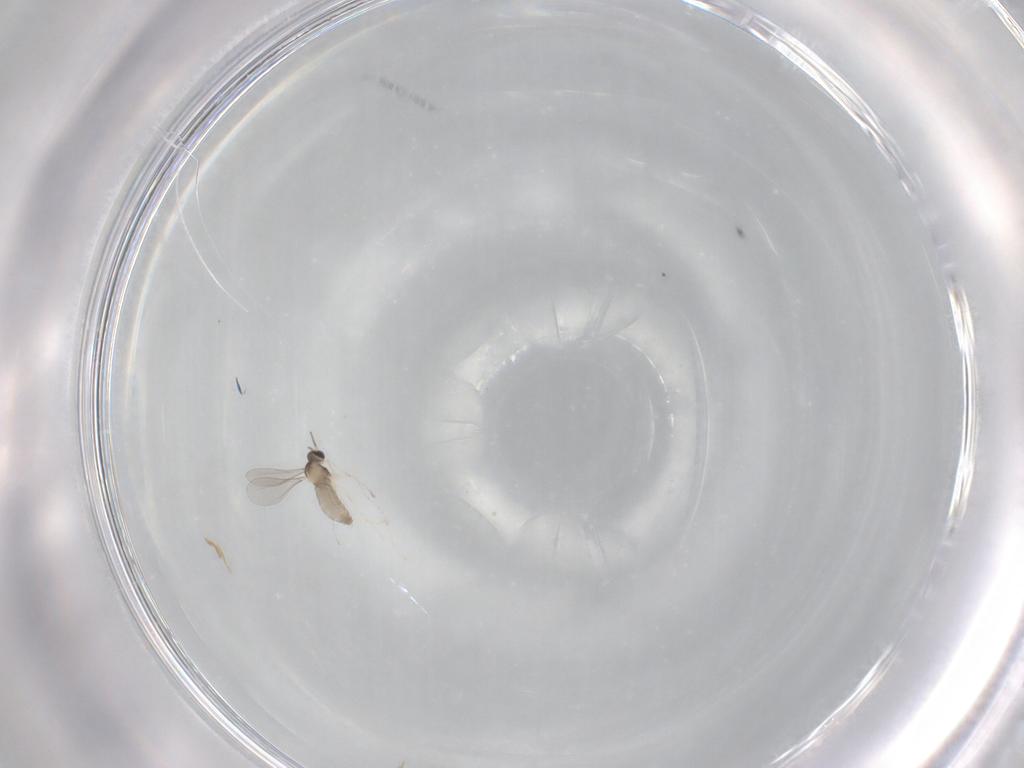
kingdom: Animalia
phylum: Arthropoda
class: Insecta
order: Diptera
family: Cecidomyiidae
